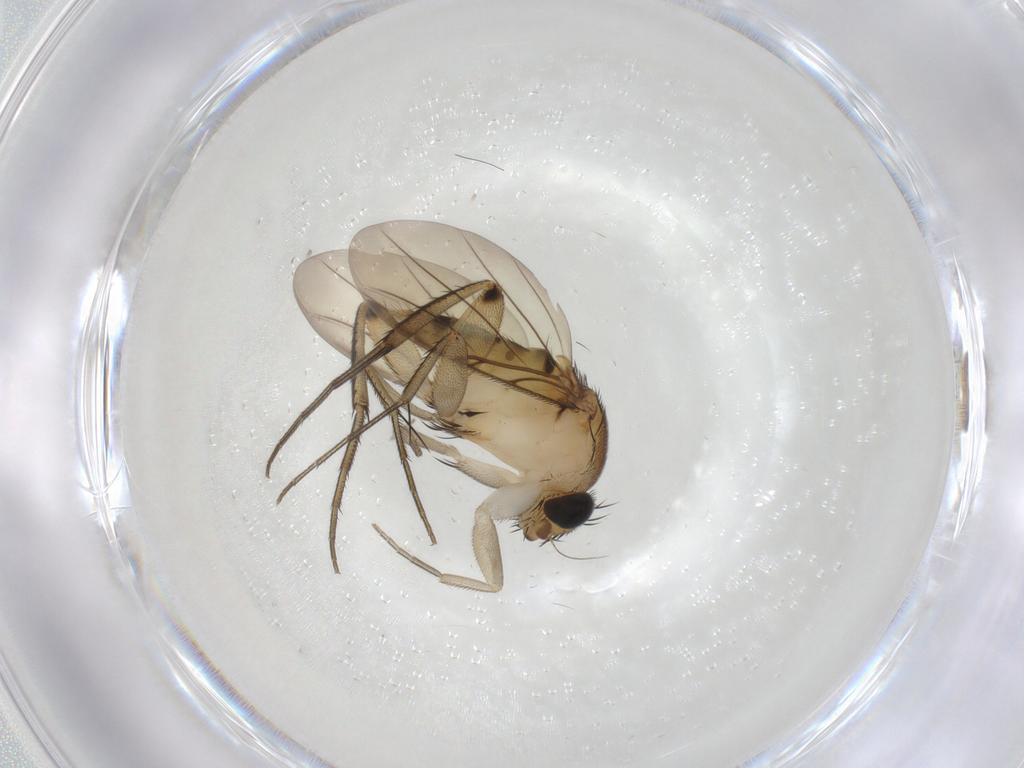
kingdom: Animalia
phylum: Arthropoda
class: Insecta
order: Diptera
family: Phoridae
